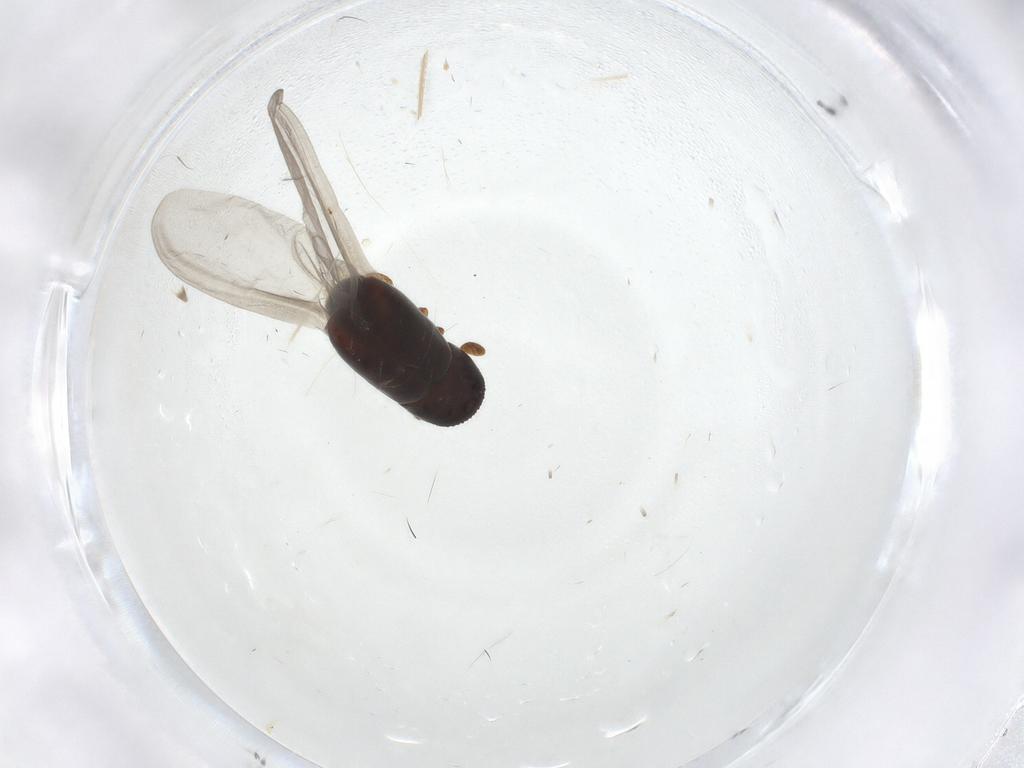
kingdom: Animalia
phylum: Arthropoda
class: Insecta
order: Coleoptera
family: Curculionidae
